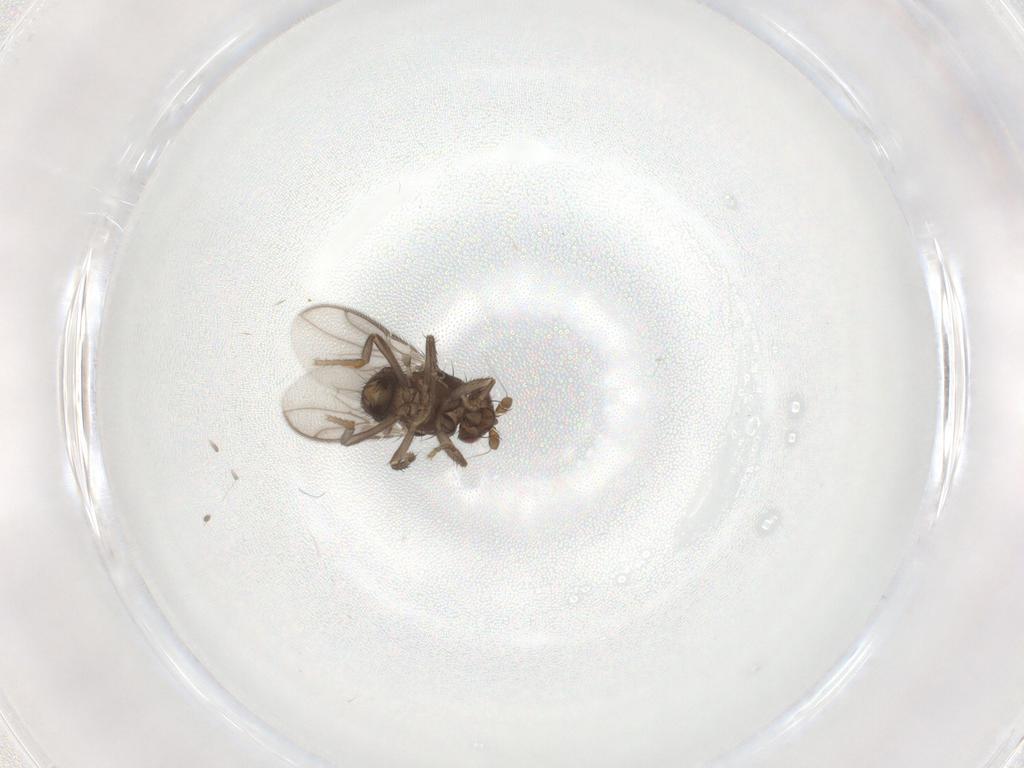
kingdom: Animalia
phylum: Arthropoda
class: Insecta
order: Diptera
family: Sphaeroceridae
